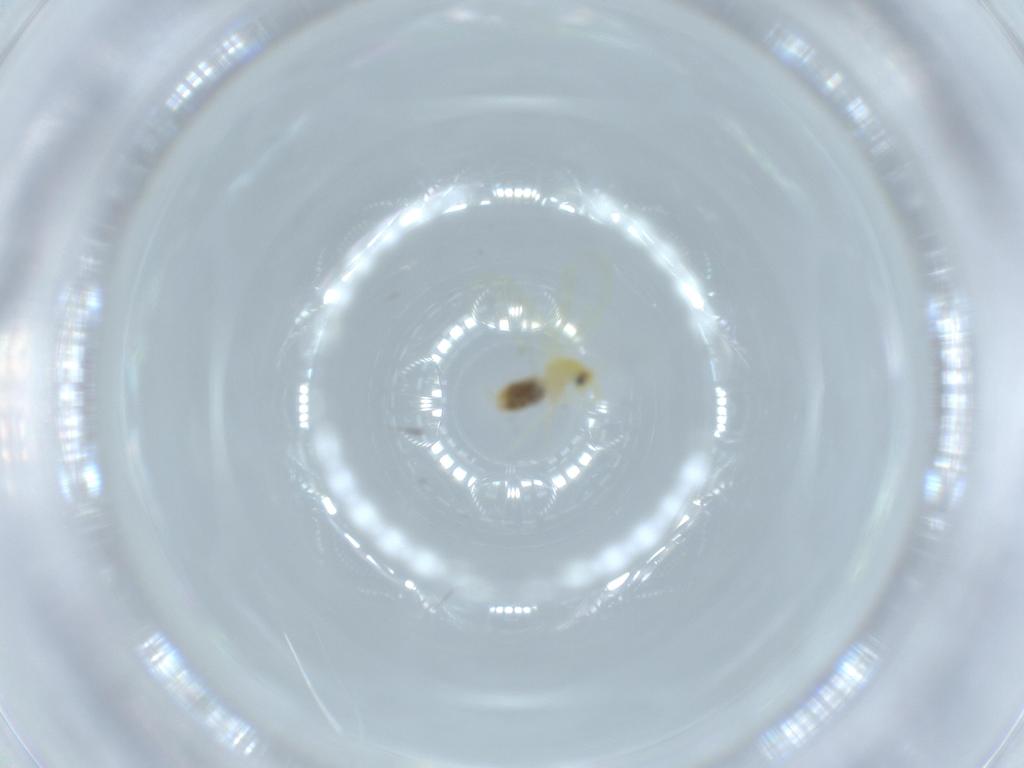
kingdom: Animalia
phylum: Arthropoda
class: Insecta
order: Hemiptera
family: Aleyrodidae
